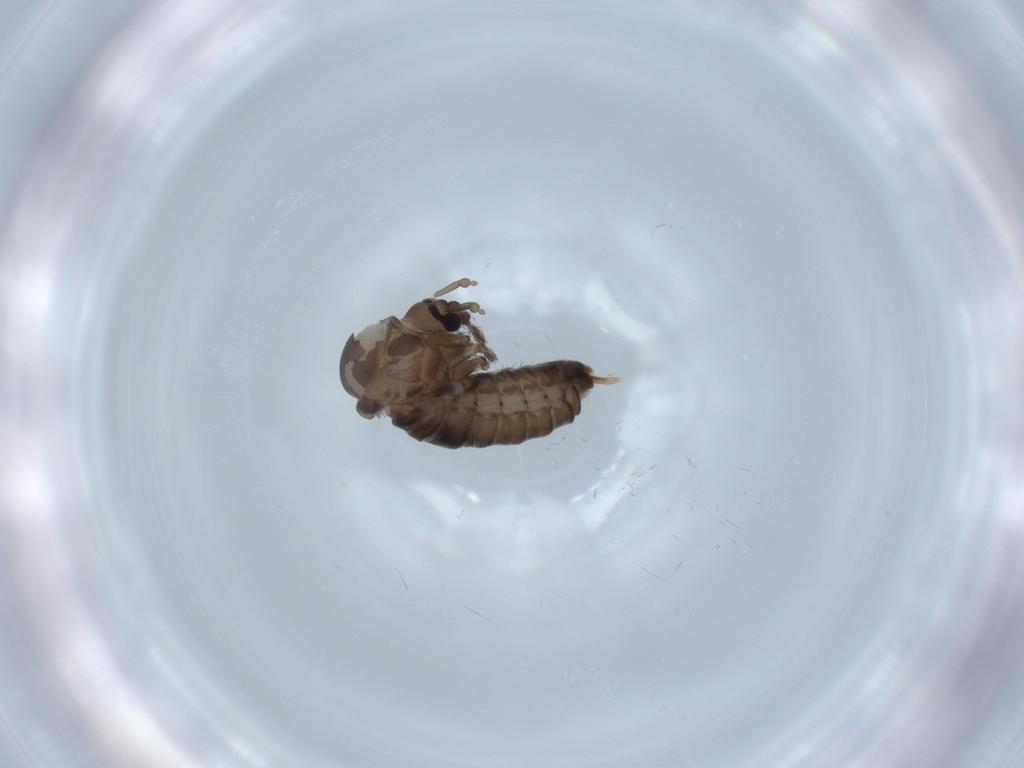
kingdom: Animalia
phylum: Arthropoda
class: Insecta
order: Diptera
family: Psychodidae
